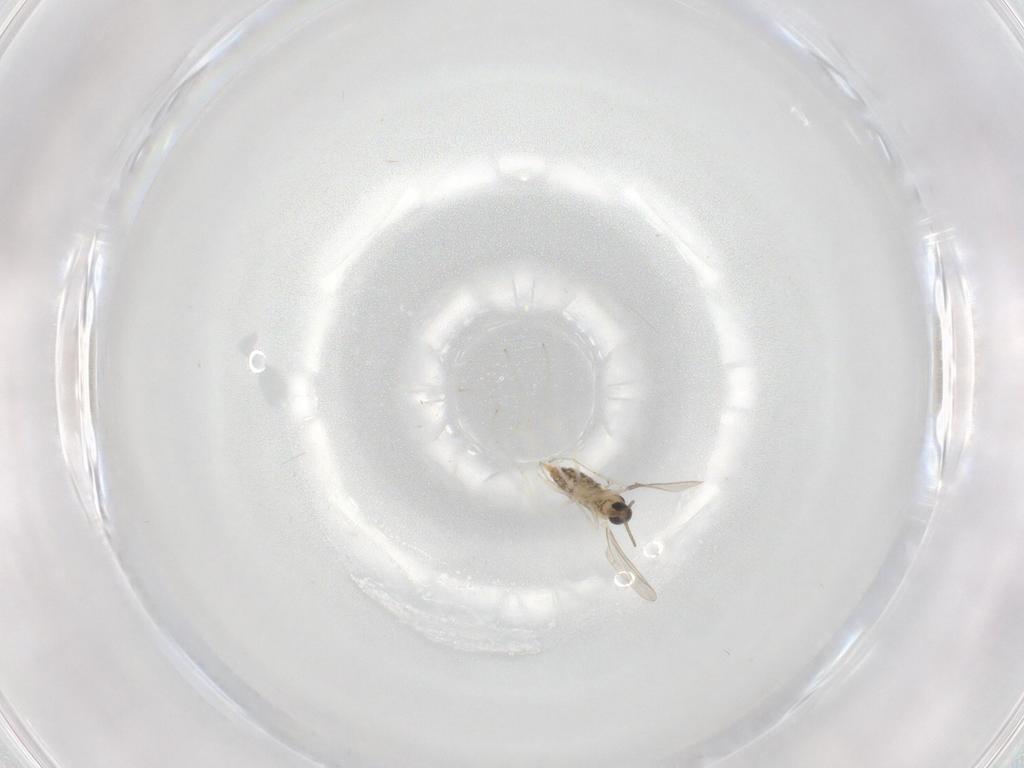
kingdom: Animalia
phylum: Arthropoda
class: Insecta
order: Diptera
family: Cecidomyiidae
